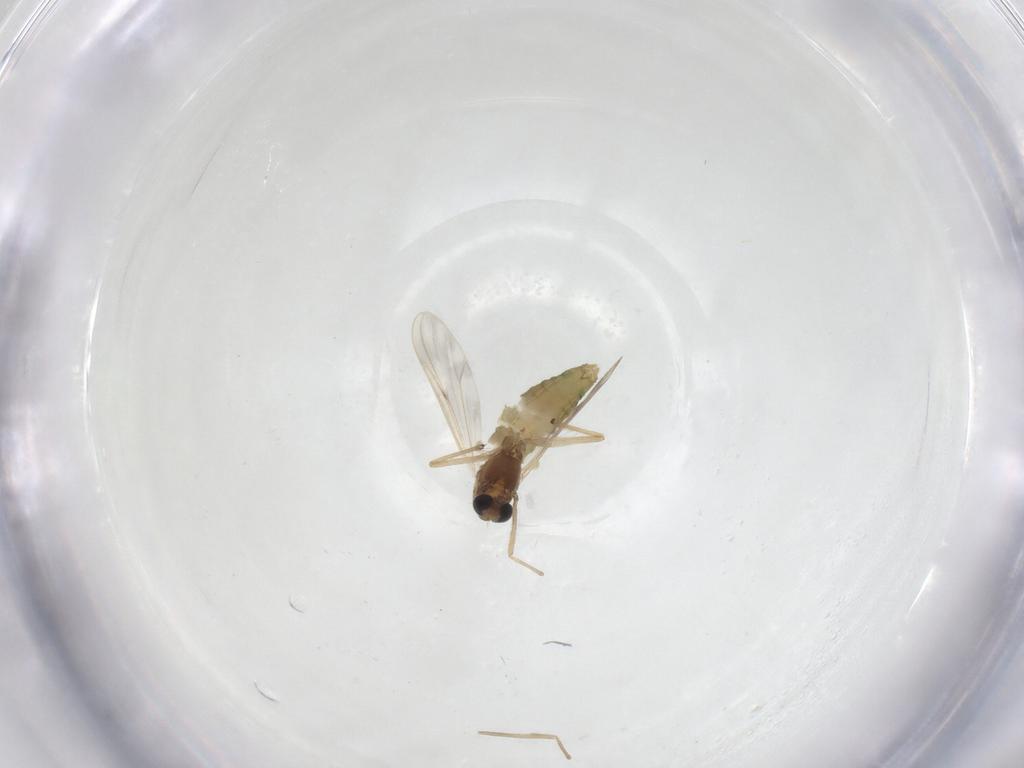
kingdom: Animalia
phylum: Arthropoda
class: Insecta
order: Diptera
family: Ceratopogonidae
